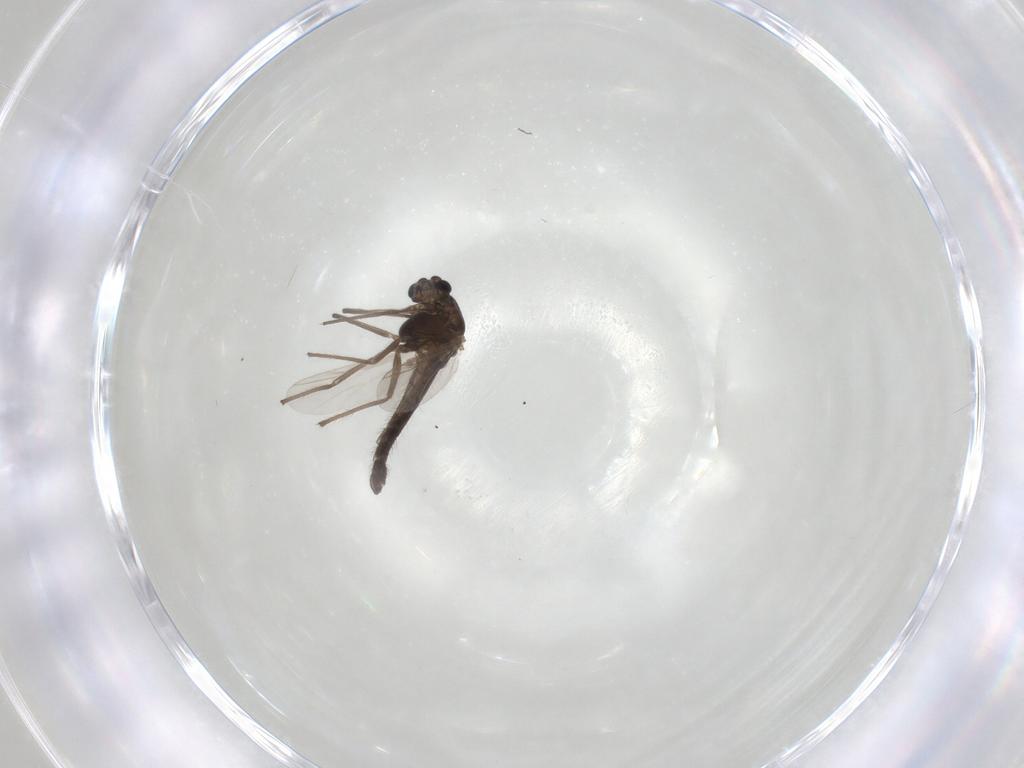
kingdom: Animalia
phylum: Arthropoda
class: Insecta
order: Diptera
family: Chironomidae
